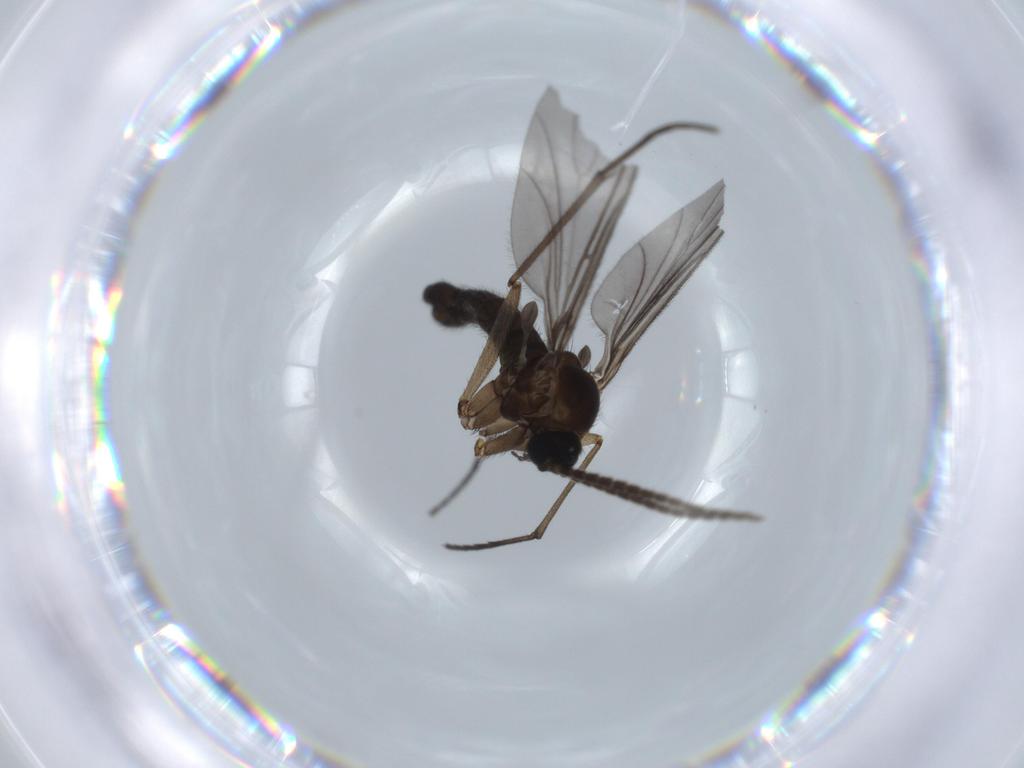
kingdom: Animalia
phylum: Arthropoda
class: Insecta
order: Diptera
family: Sciaridae
